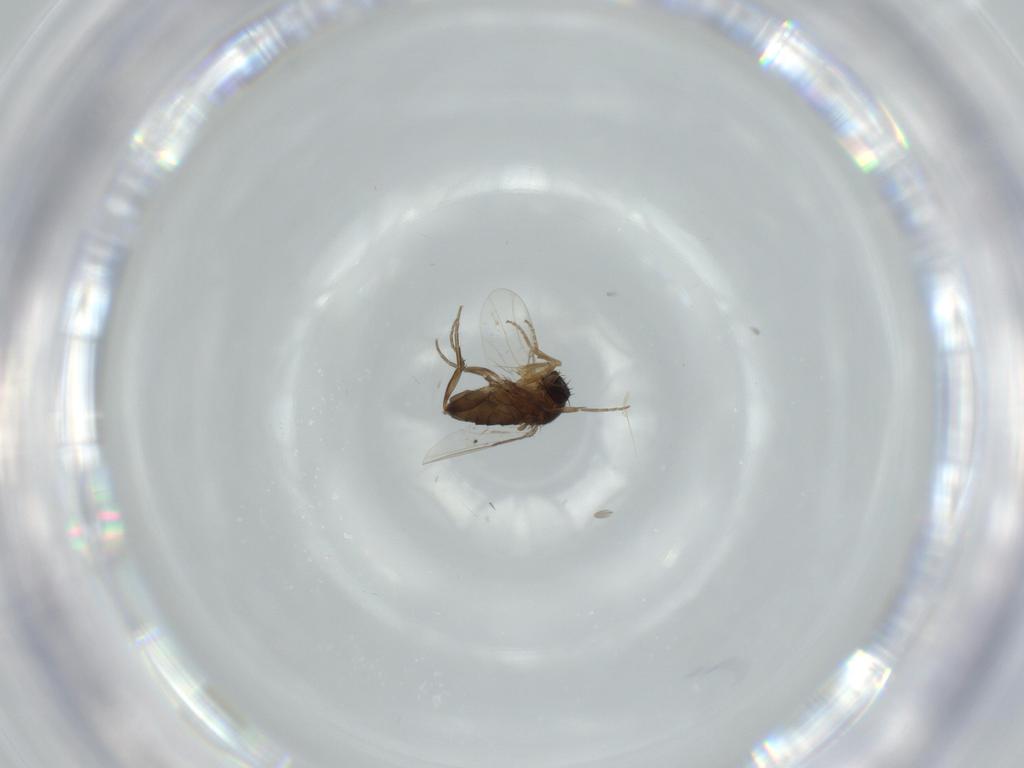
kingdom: Animalia
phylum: Arthropoda
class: Insecta
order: Diptera
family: Phoridae
